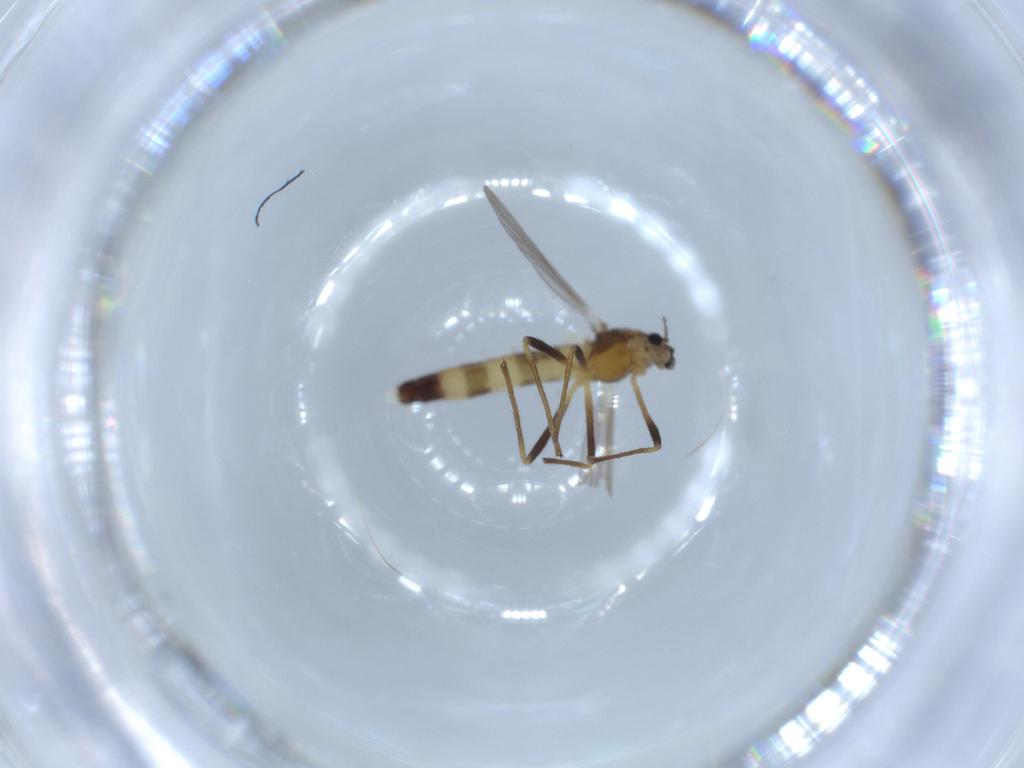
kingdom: Animalia
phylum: Arthropoda
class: Insecta
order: Diptera
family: Chironomidae
